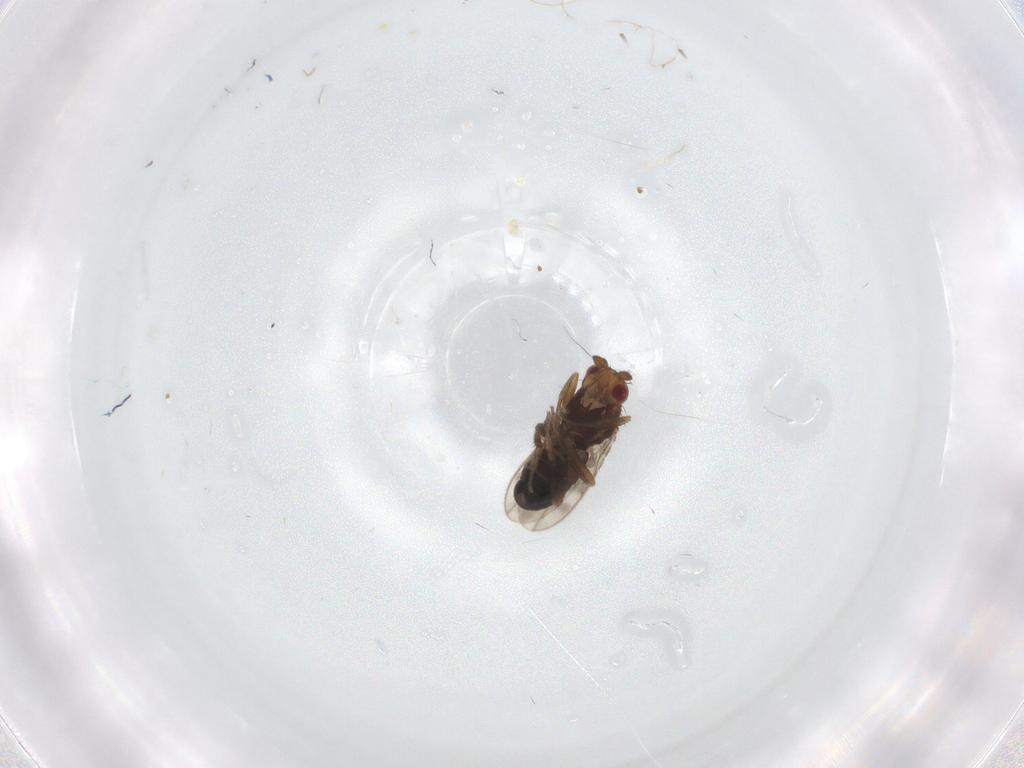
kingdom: Animalia
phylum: Arthropoda
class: Insecta
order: Diptera
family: Sphaeroceridae
